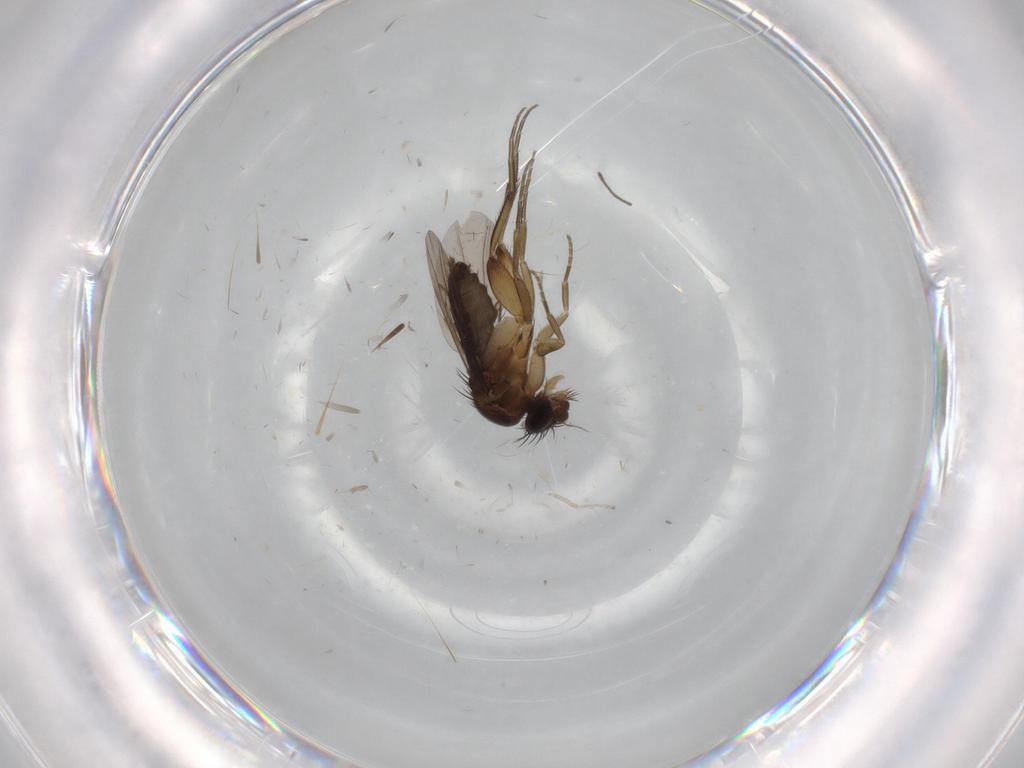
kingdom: Animalia
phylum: Arthropoda
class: Insecta
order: Diptera
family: Phoridae
